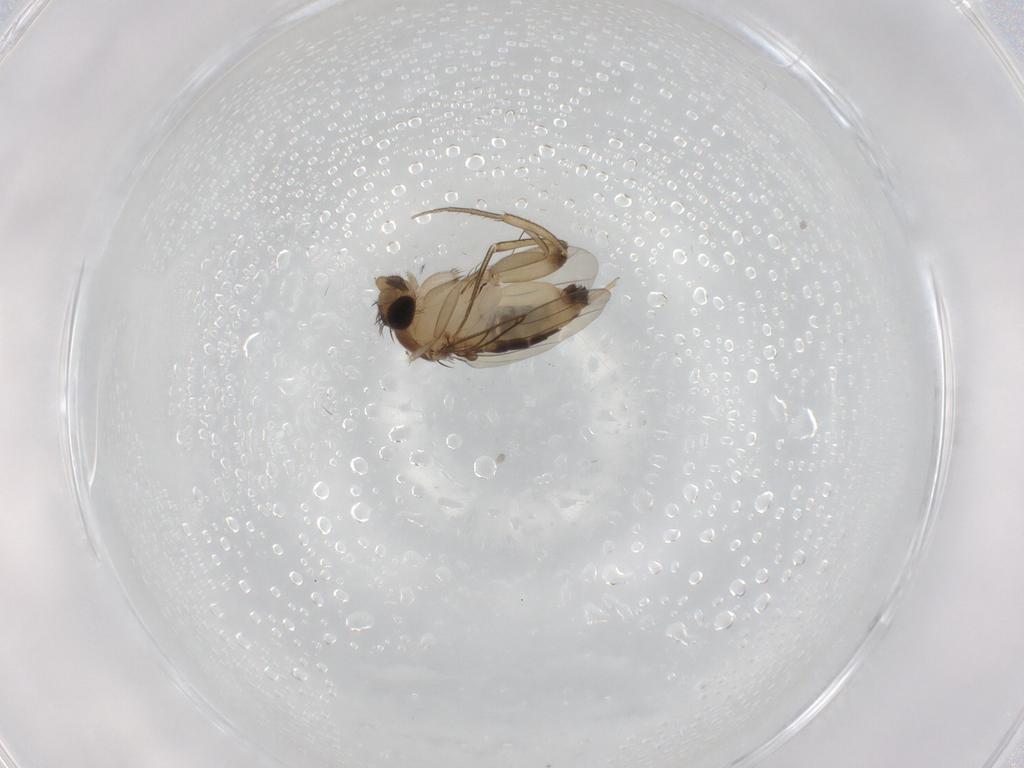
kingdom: Animalia
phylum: Arthropoda
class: Insecta
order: Diptera
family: Phoridae
